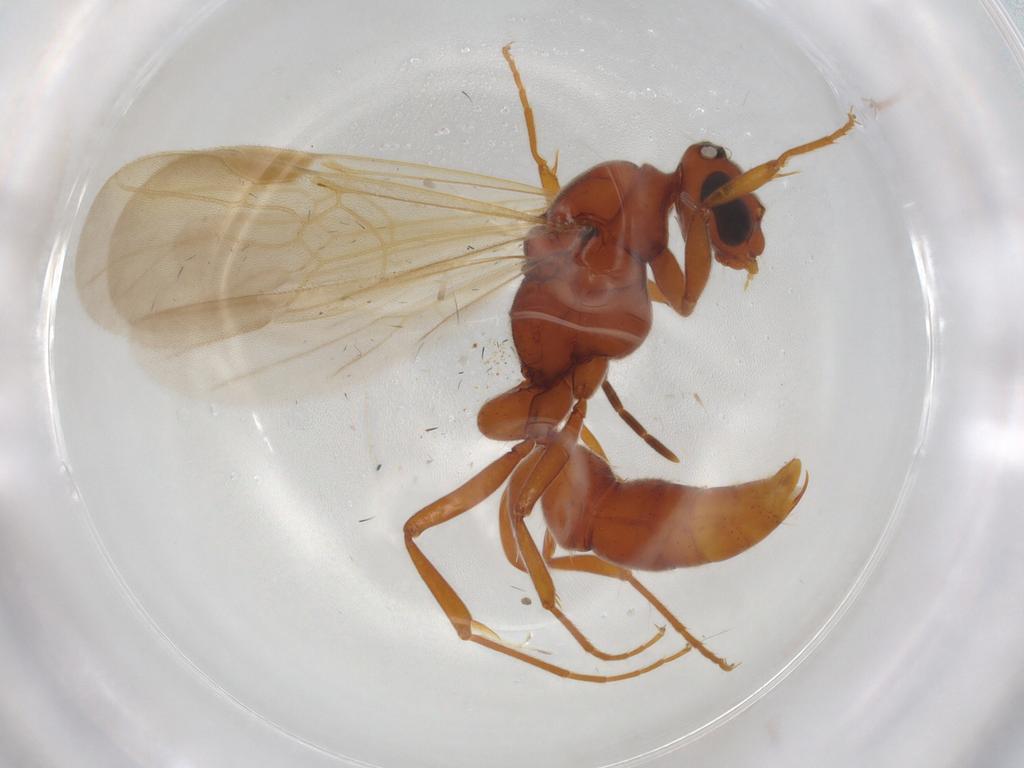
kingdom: Animalia
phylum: Arthropoda
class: Insecta
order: Hymenoptera
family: Formicidae
